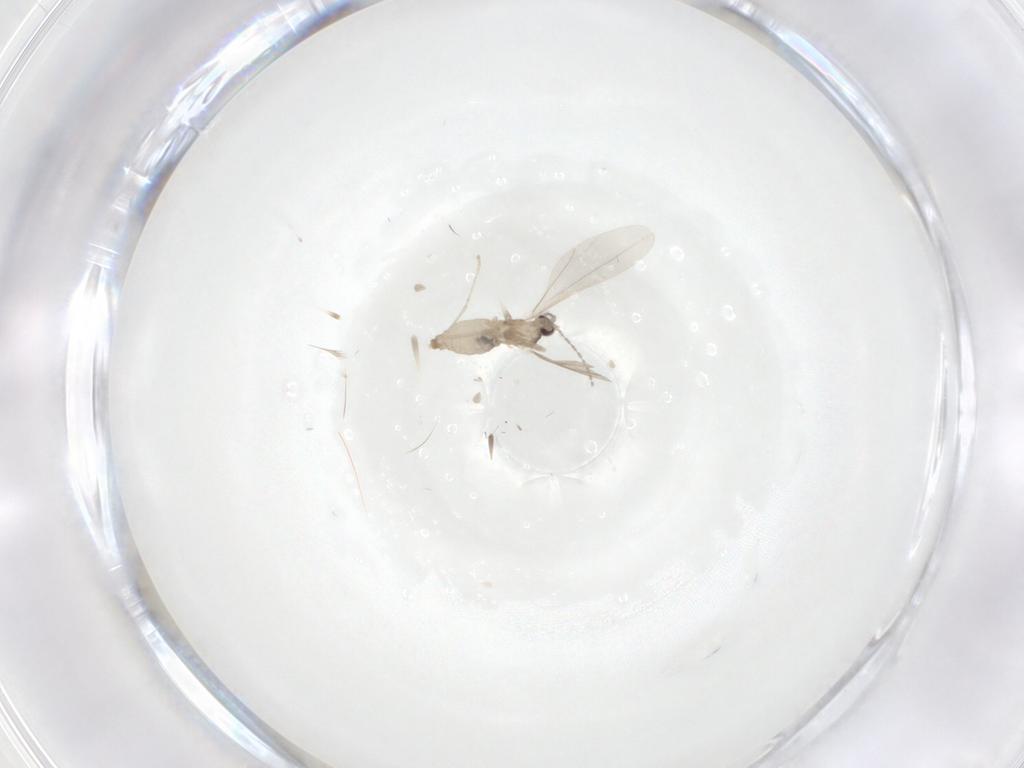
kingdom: Animalia
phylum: Arthropoda
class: Insecta
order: Diptera
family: Cecidomyiidae
